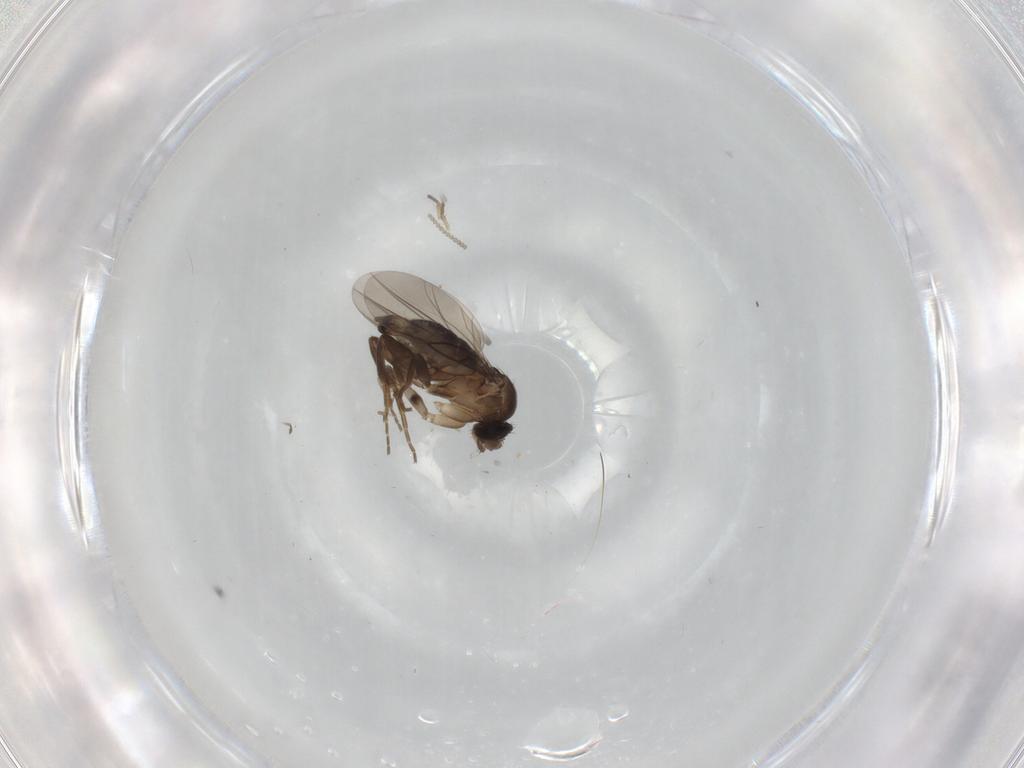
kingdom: Animalia
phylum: Arthropoda
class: Insecta
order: Diptera
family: Phoridae
